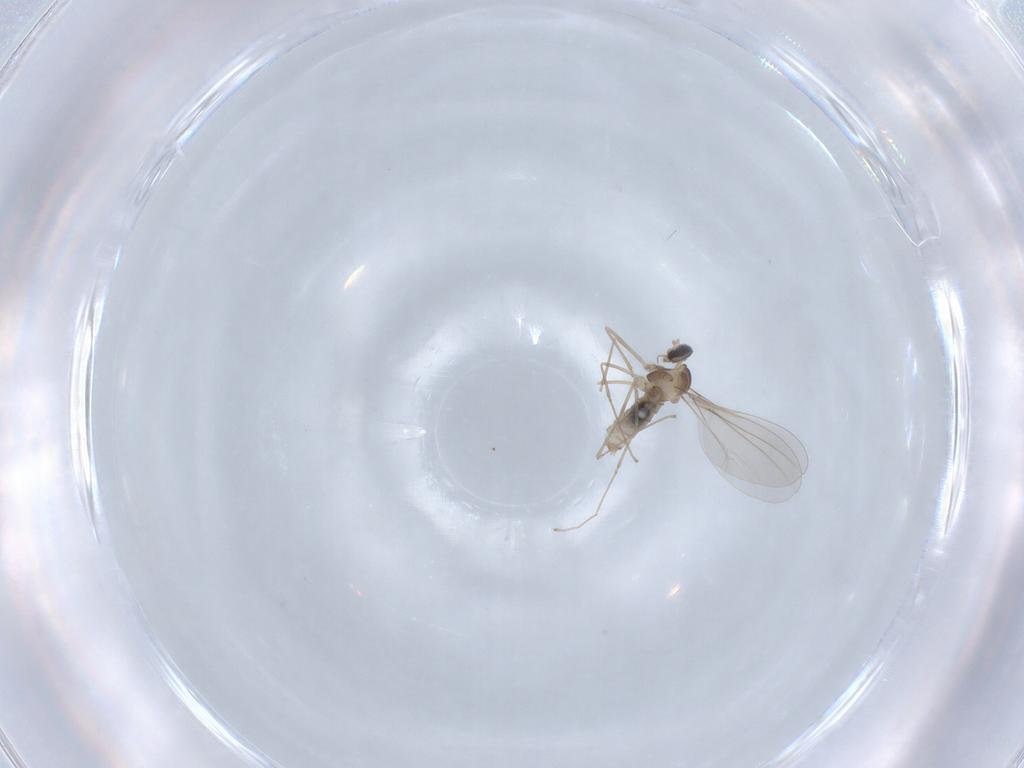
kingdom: Animalia
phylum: Arthropoda
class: Insecta
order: Diptera
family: Cecidomyiidae
